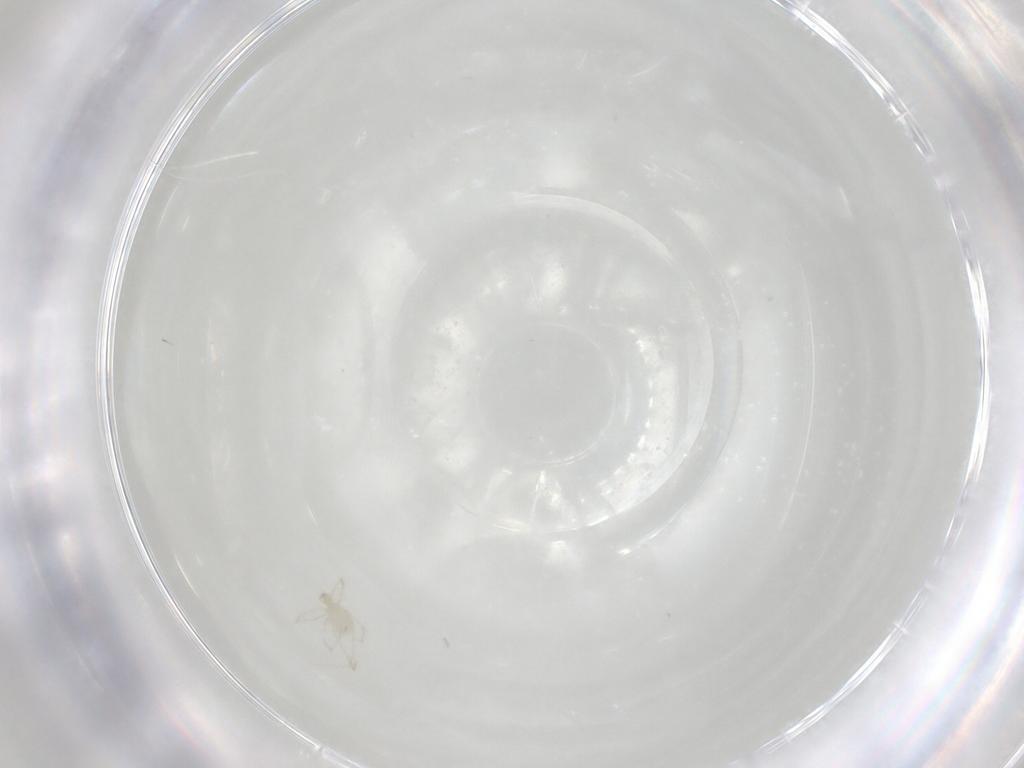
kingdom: Animalia
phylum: Arthropoda
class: Arachnida
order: Trombidiformes
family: Erythraeidae
